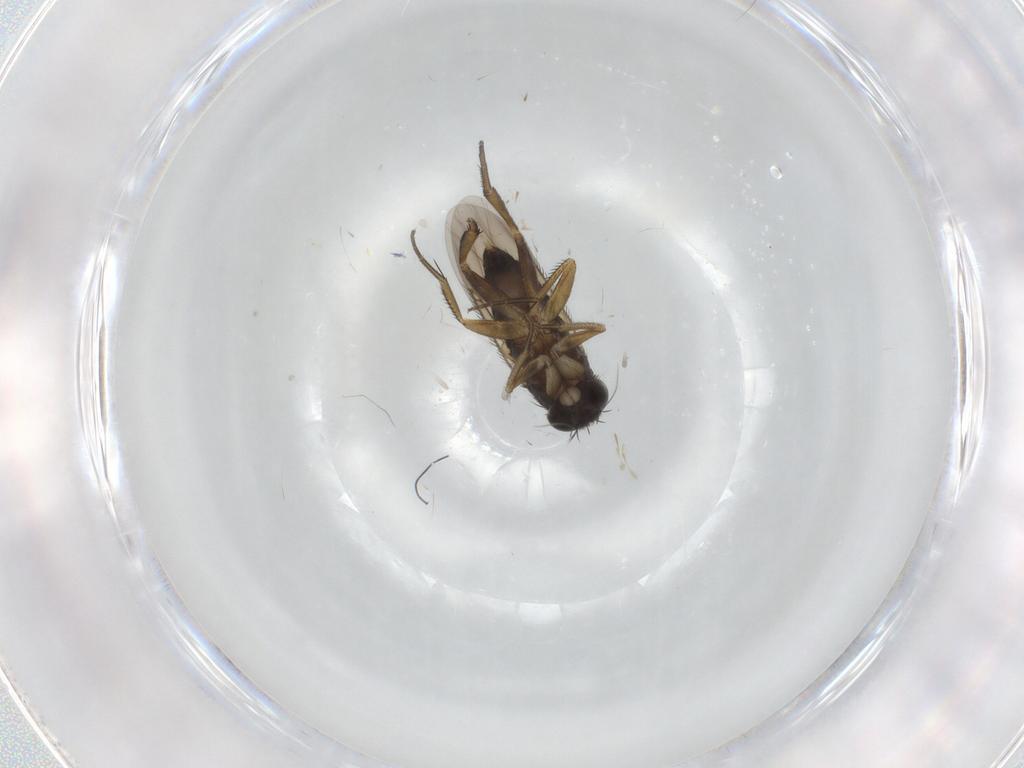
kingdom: Animalia
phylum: Arthropoda
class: Insecta
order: Diptera
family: Phoridae
